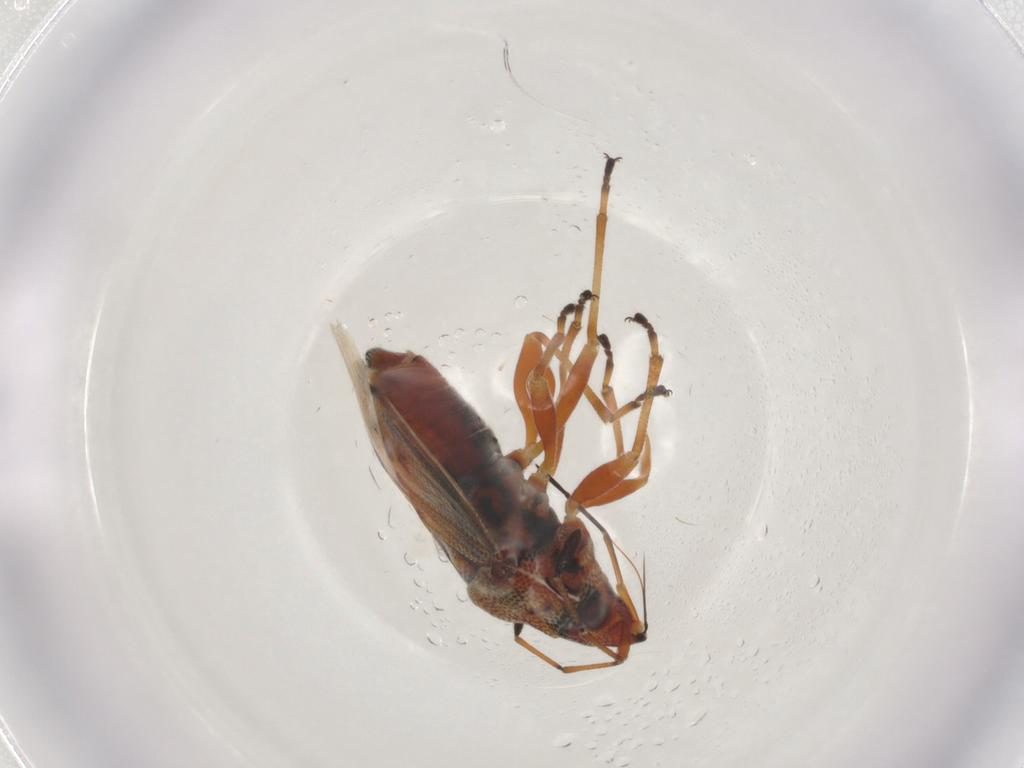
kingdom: Animalia
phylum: Arthropoda
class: Insecta
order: Hemiptera
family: Lygaeidae
